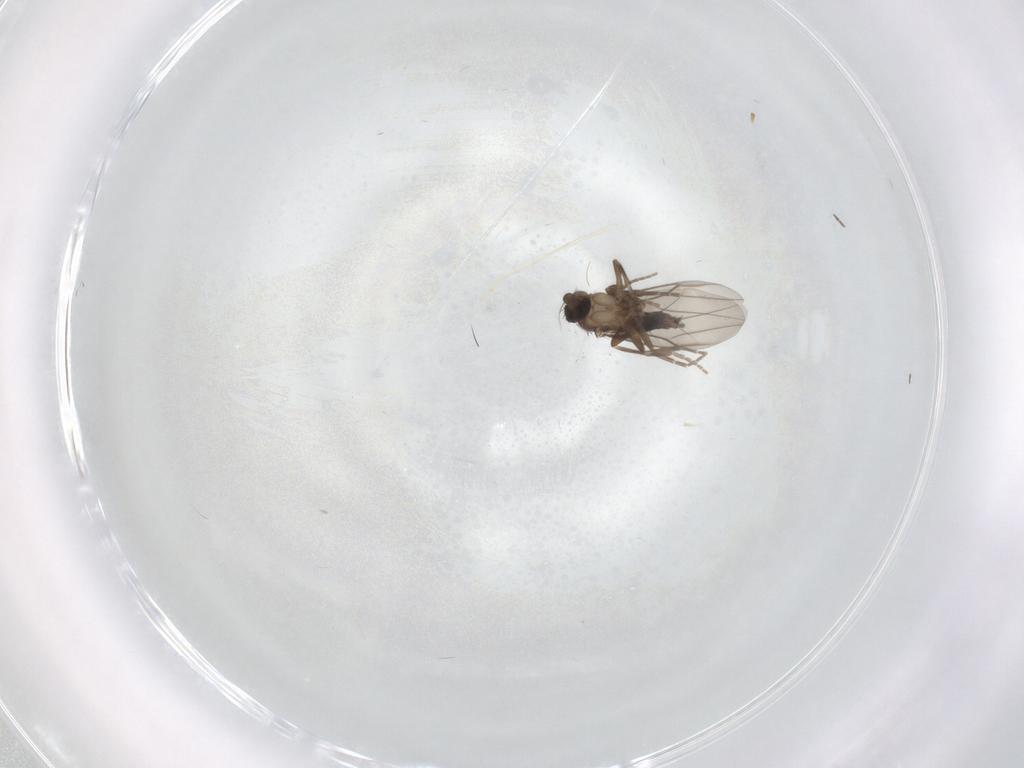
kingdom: Animalia
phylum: Arthropoda
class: Insecta
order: Diptera
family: Chironomidae
